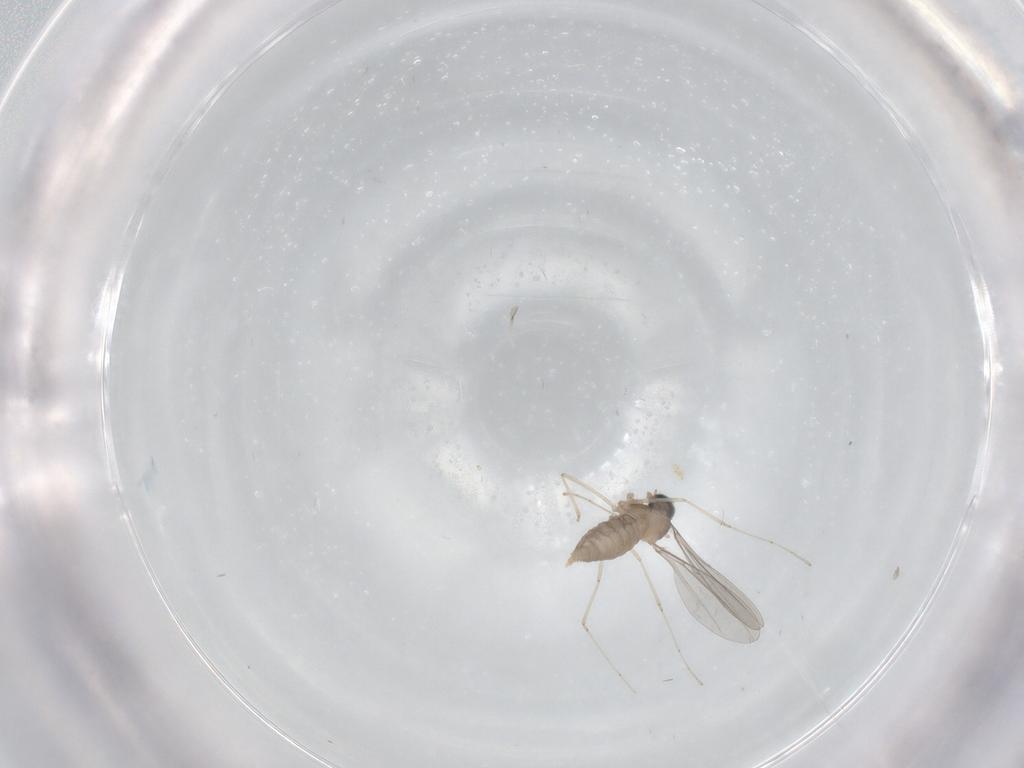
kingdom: Animalia
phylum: Arthropoda
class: Insecta
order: Diptera
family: Cecidomyiidae
